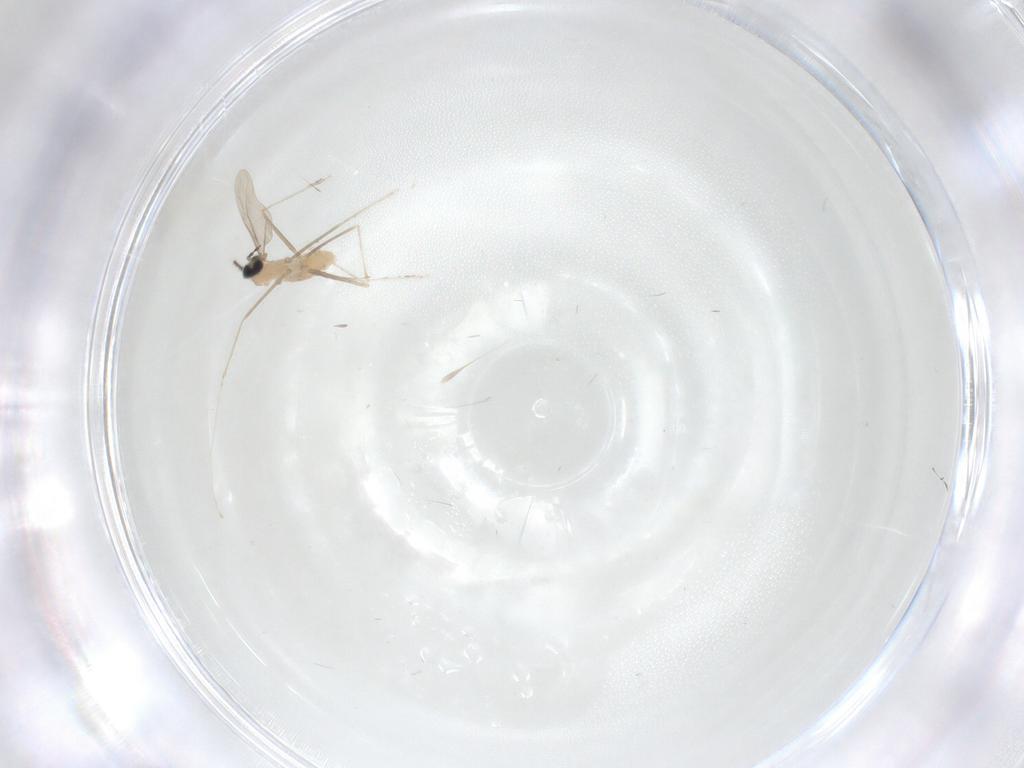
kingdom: Animalia
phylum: Arthropoda
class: Insecta
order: Diptera
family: Cecidomyiidae
